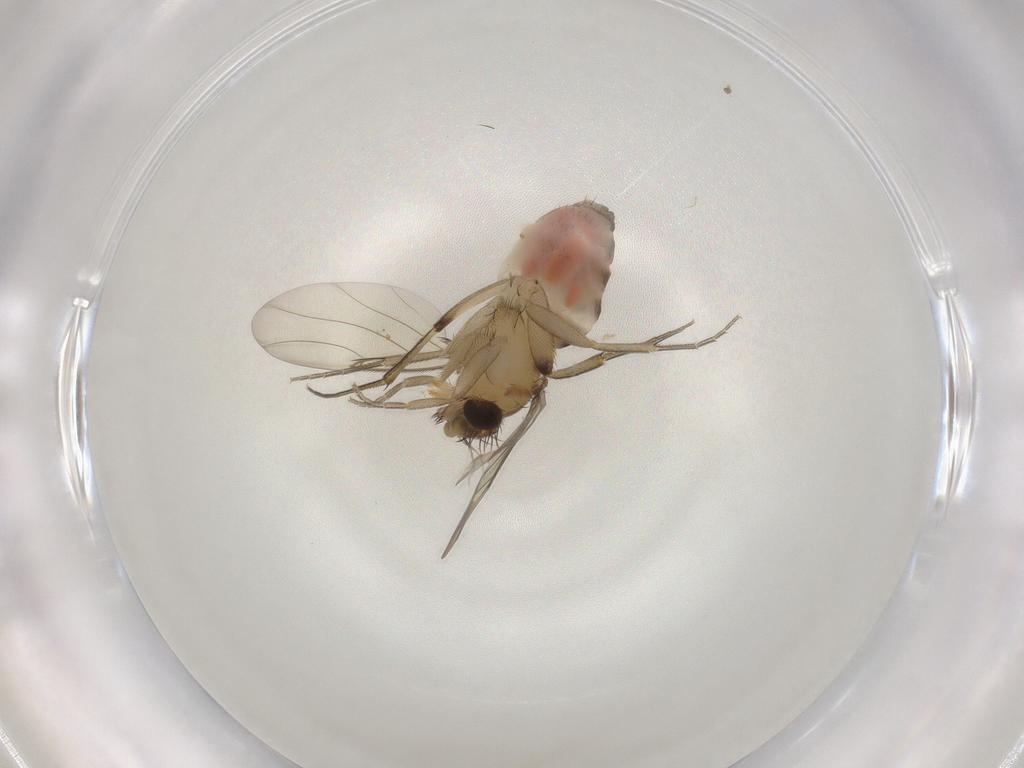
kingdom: Animalia
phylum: Arthropoda
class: Insecta
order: Diptera
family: Phoridae
